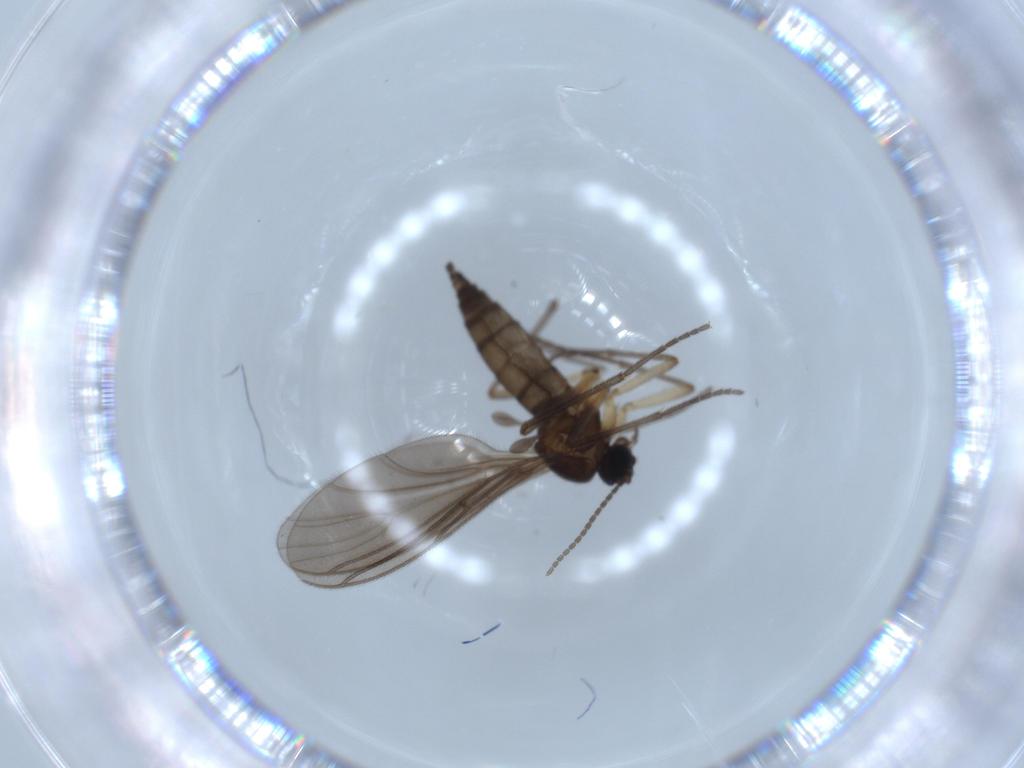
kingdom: Animalia
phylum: Arthropoda
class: Insecta
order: Diptera
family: Sciaridae
